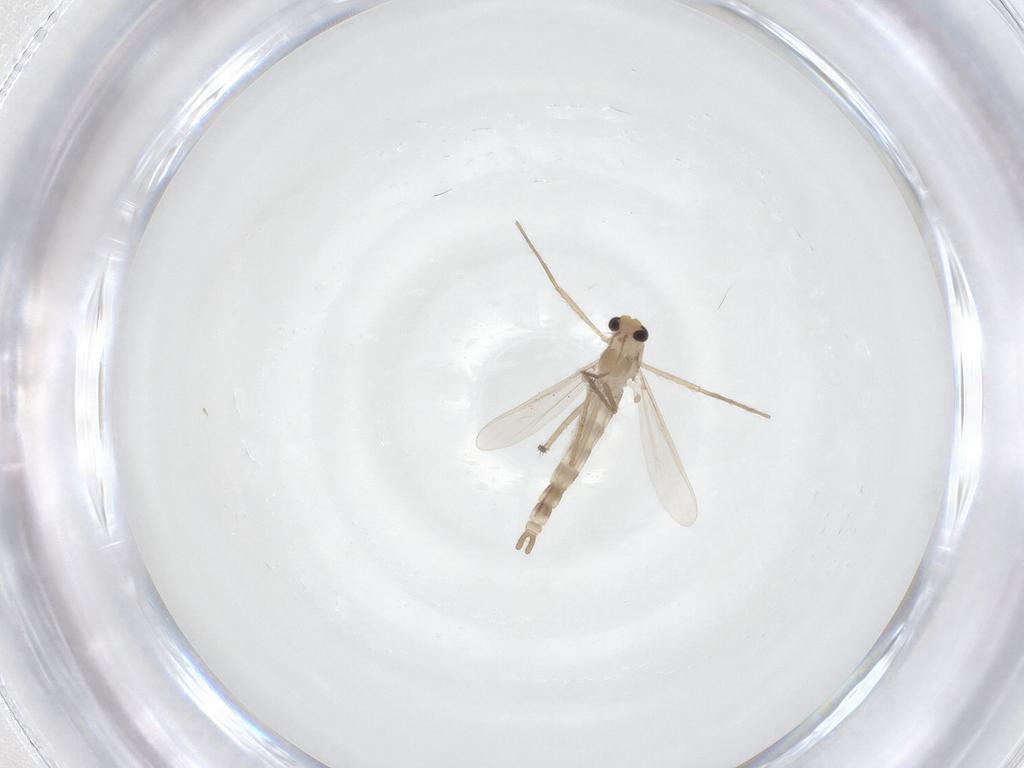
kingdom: Animalia
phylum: Arthropoda
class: Insecta
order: Diptera
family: Chironomidae
